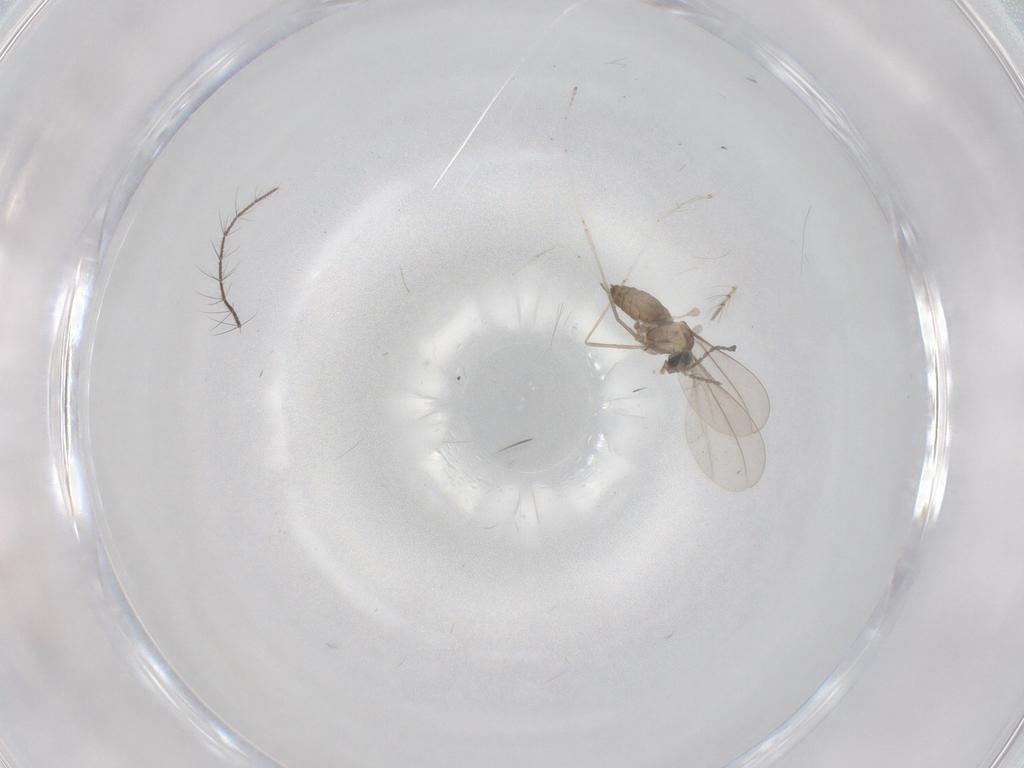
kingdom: Animalia
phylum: Arthropoda
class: Insecta
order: Diptera
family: Cecidomyiidae
